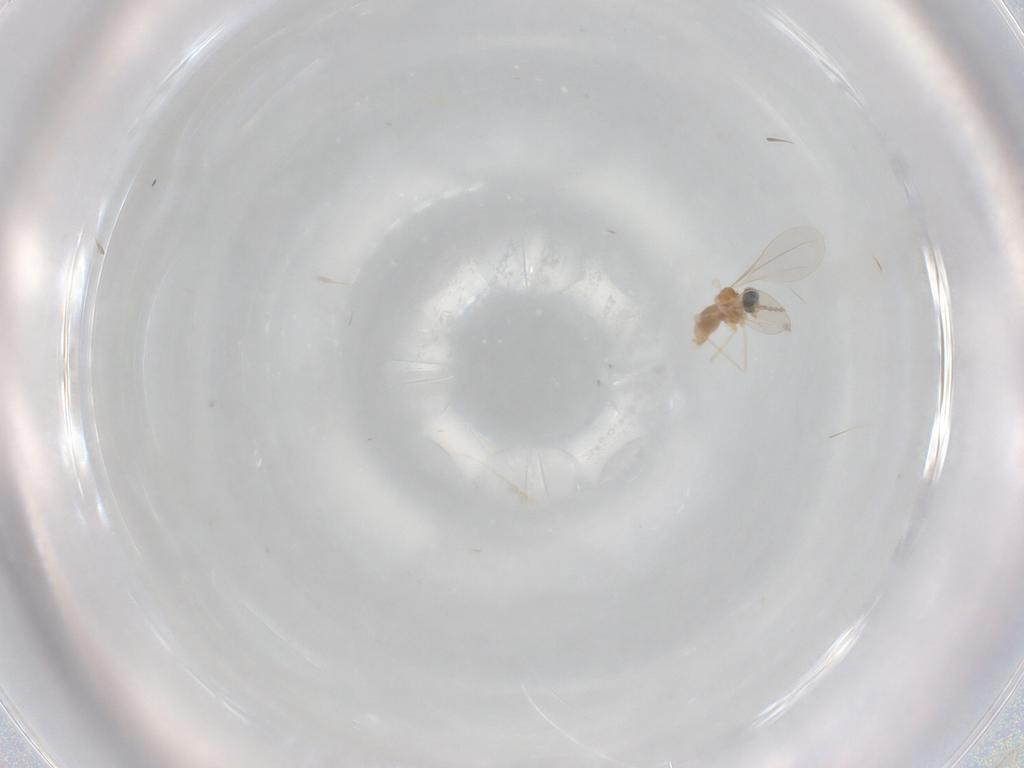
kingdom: Animalia
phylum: Arthropoda
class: Insecta
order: Diptera
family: Cecidomyiidae
